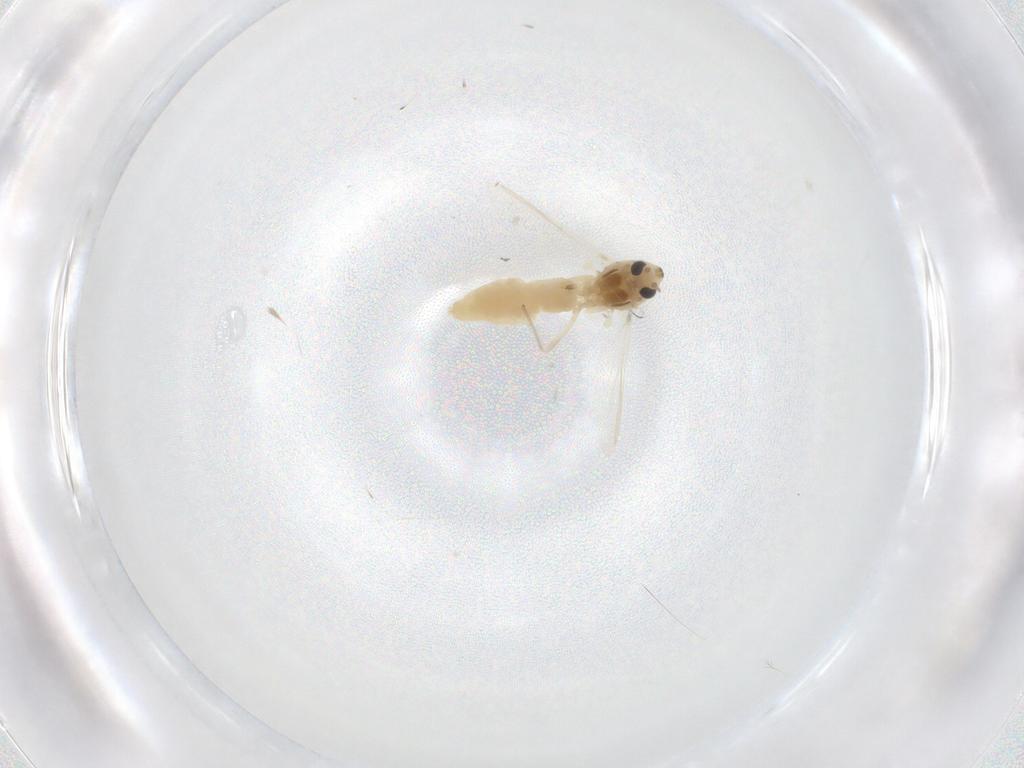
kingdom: Animalia
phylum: Arthropoda
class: Insecta
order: Diptera
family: Chironomidae
